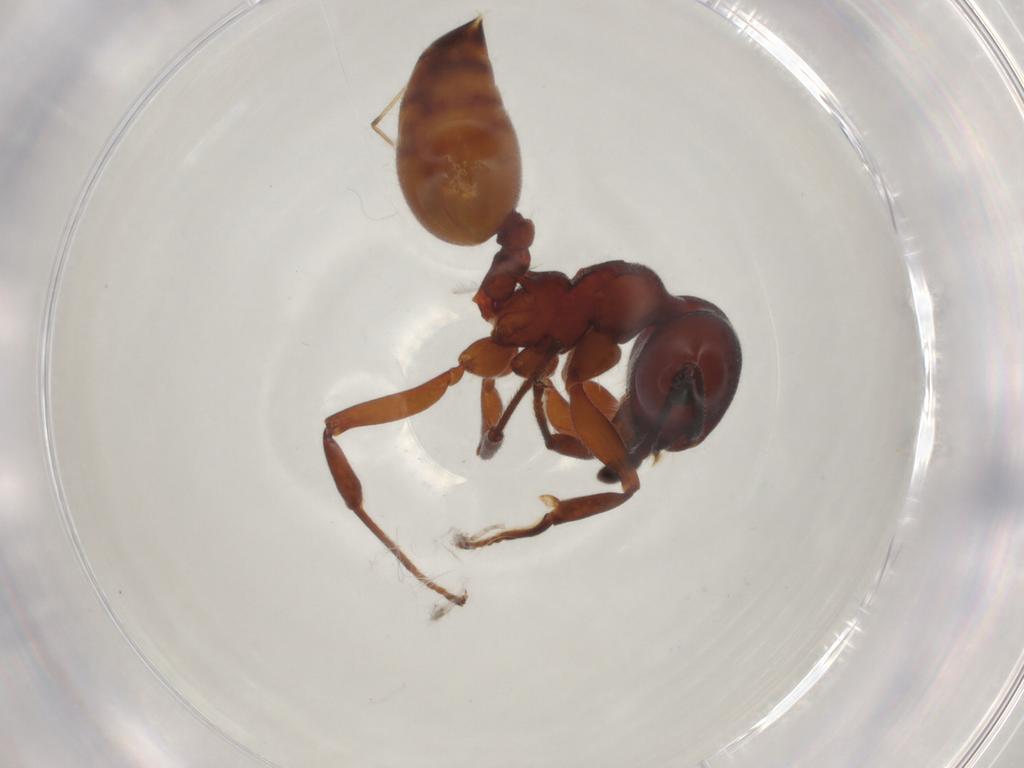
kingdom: Animalia
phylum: Arthropoda
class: Insecta
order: Hymenoptera
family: Formicidae
